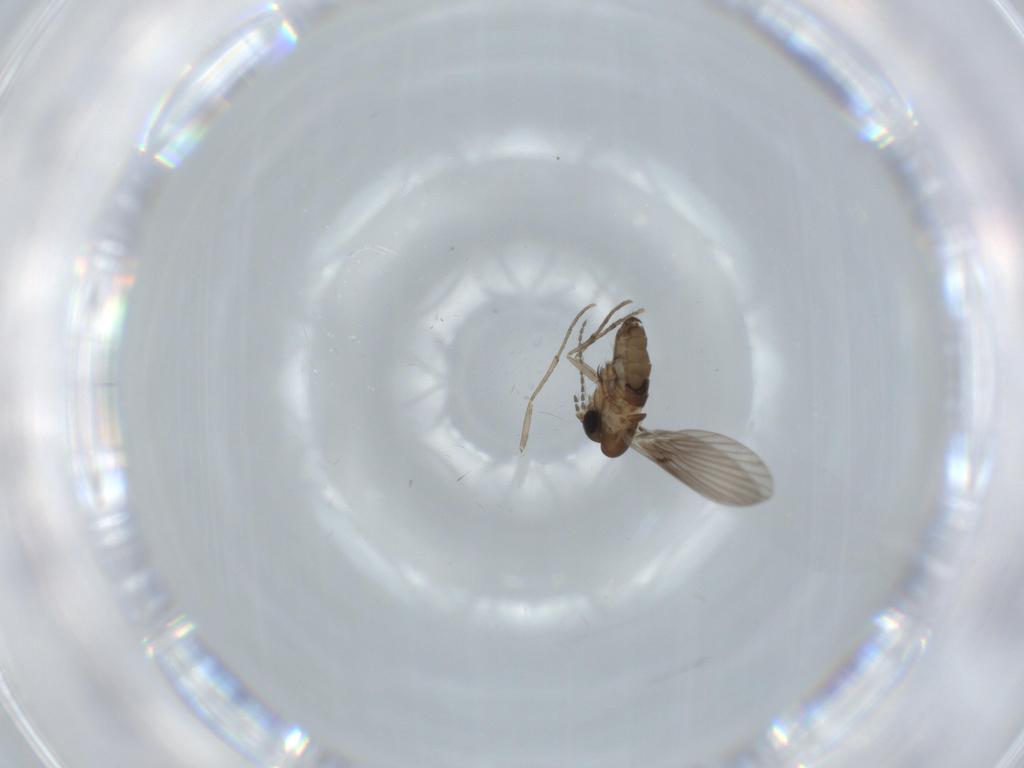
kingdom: Animalia
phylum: Arthropoda
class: Insecta
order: Diptera
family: Psychodidae
